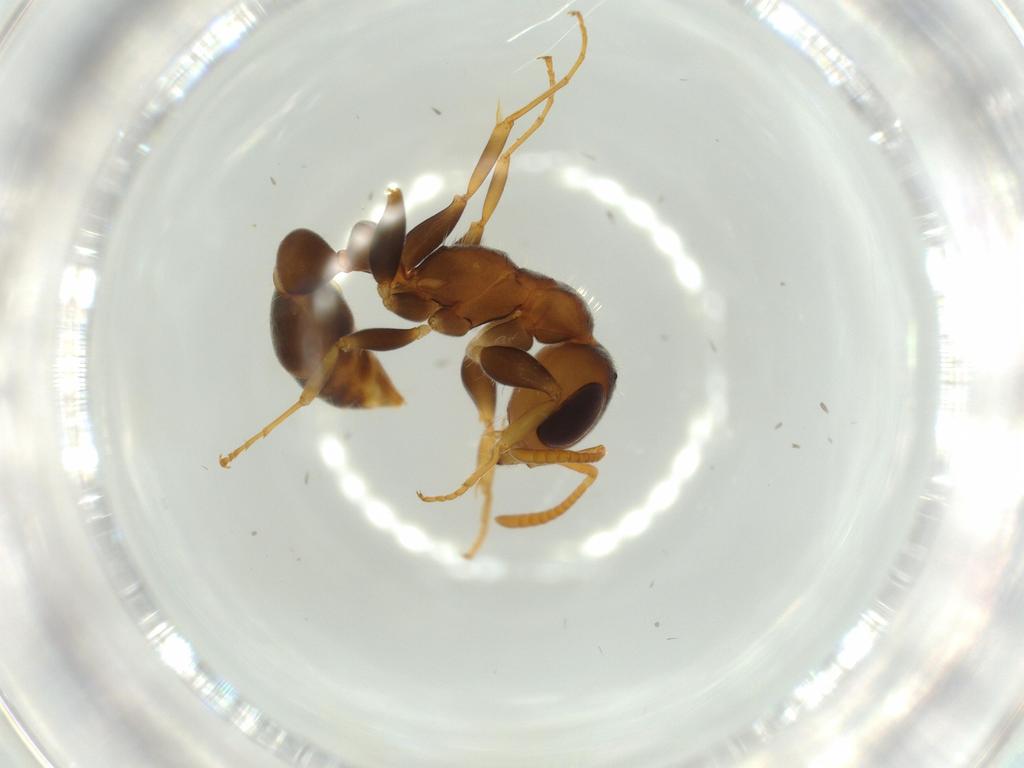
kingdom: Animalia
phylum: Arthropoda
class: Insecta
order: Hymenoptera
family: Formicidae
